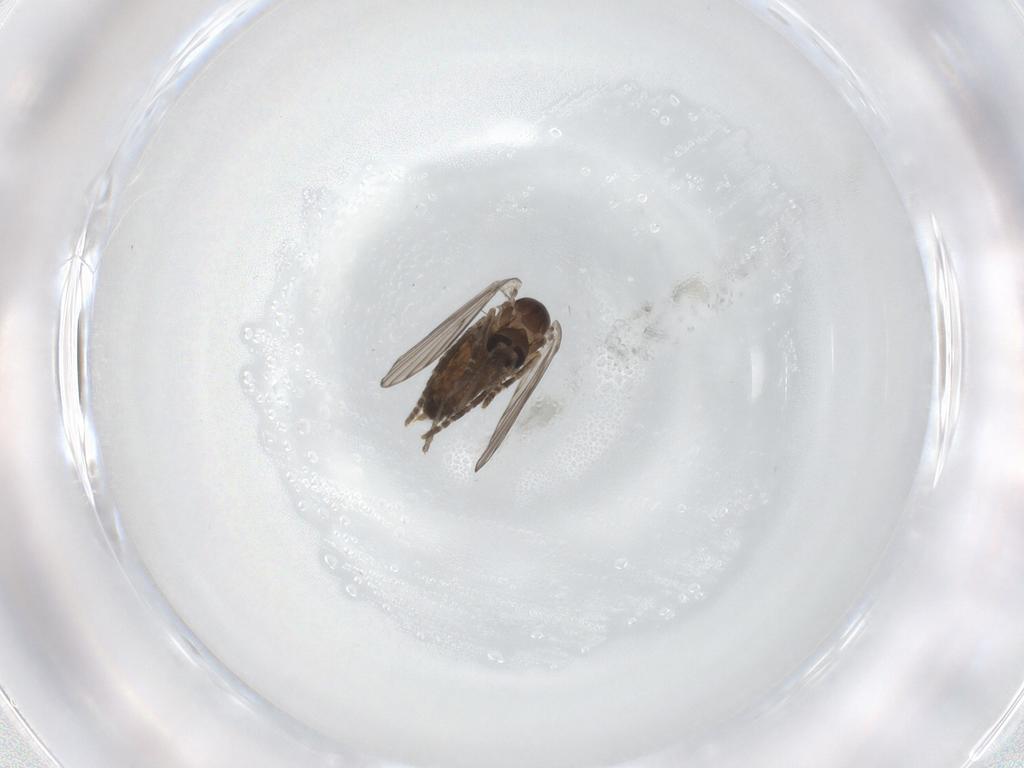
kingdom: Animalia
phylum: Arthropoda
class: Insecta
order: Diptera
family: Psychodidae
